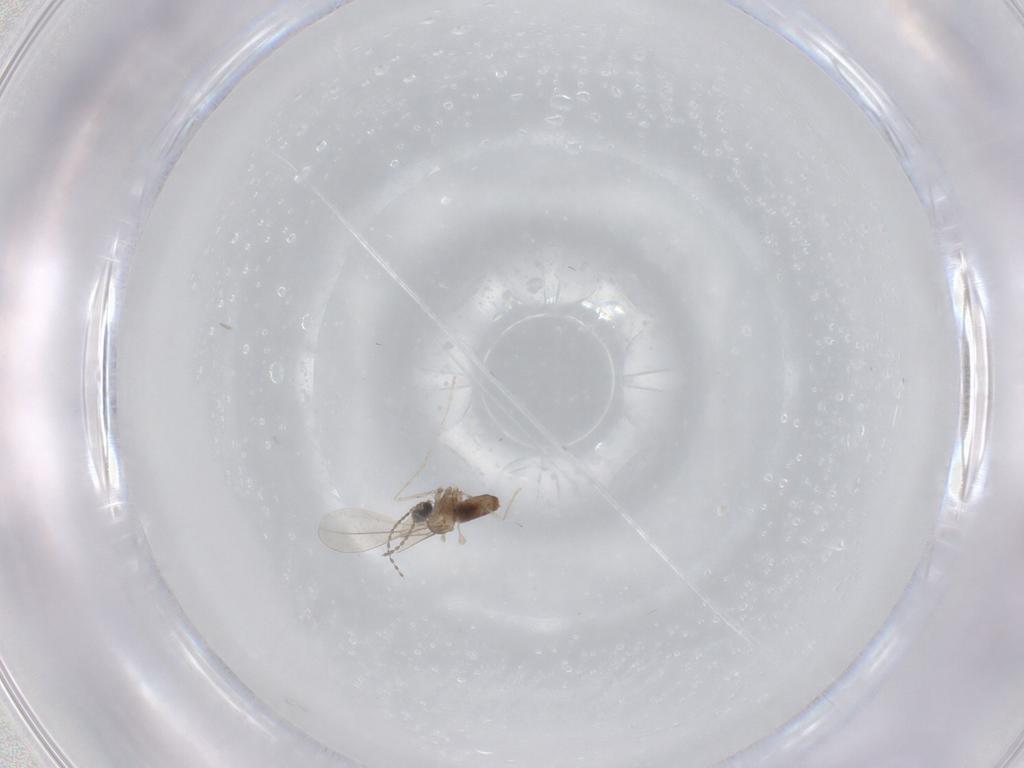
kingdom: Animalia
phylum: Arthropoda
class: Insecta
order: Diptera
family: Cecidomyiidae
